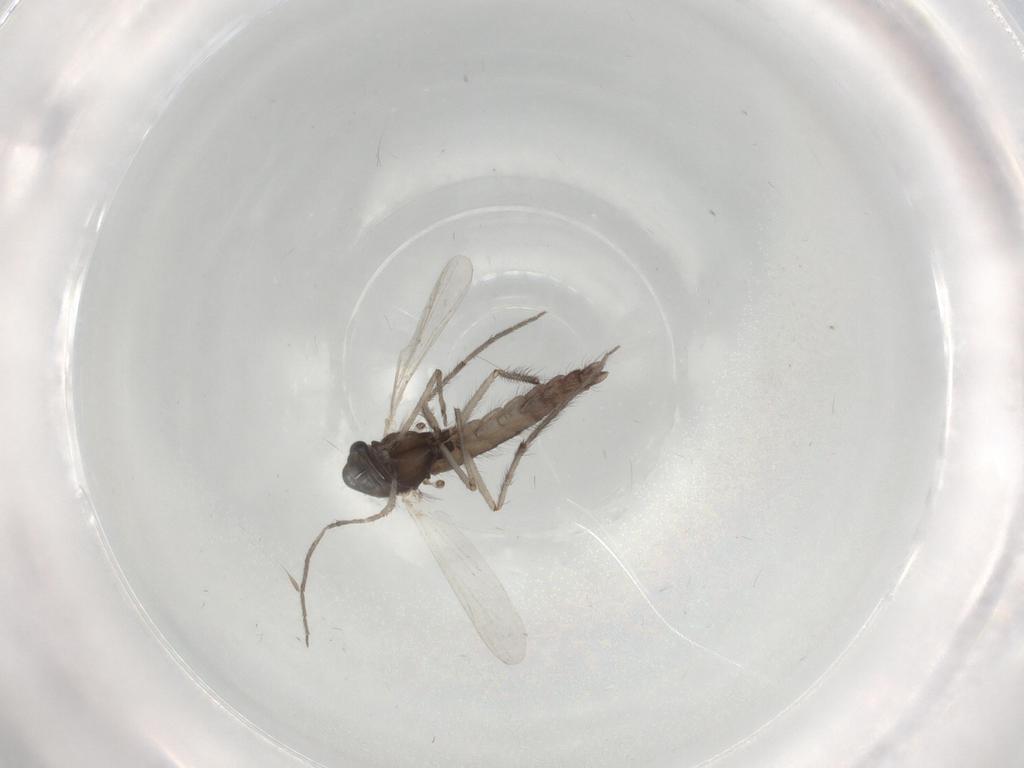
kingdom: Animalia
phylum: Arthropoda
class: Insecta
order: Diptera
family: Chironomidae
